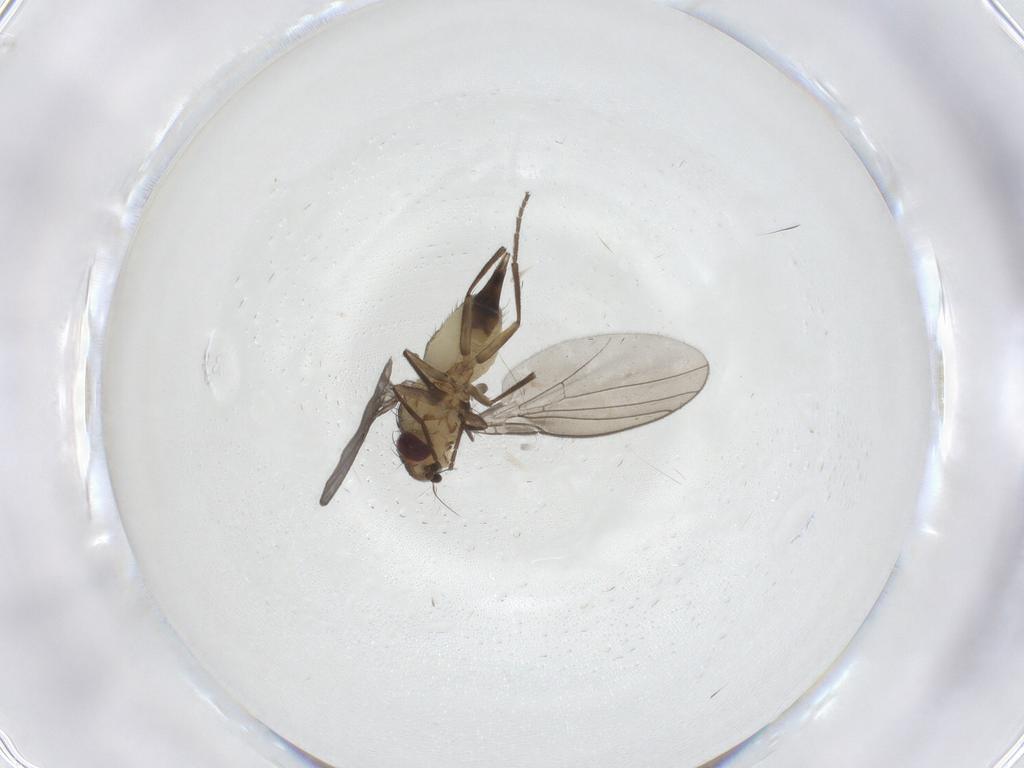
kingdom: Animalia
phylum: Arthropoda
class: Insecta
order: Diptera
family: Agromyzidae
